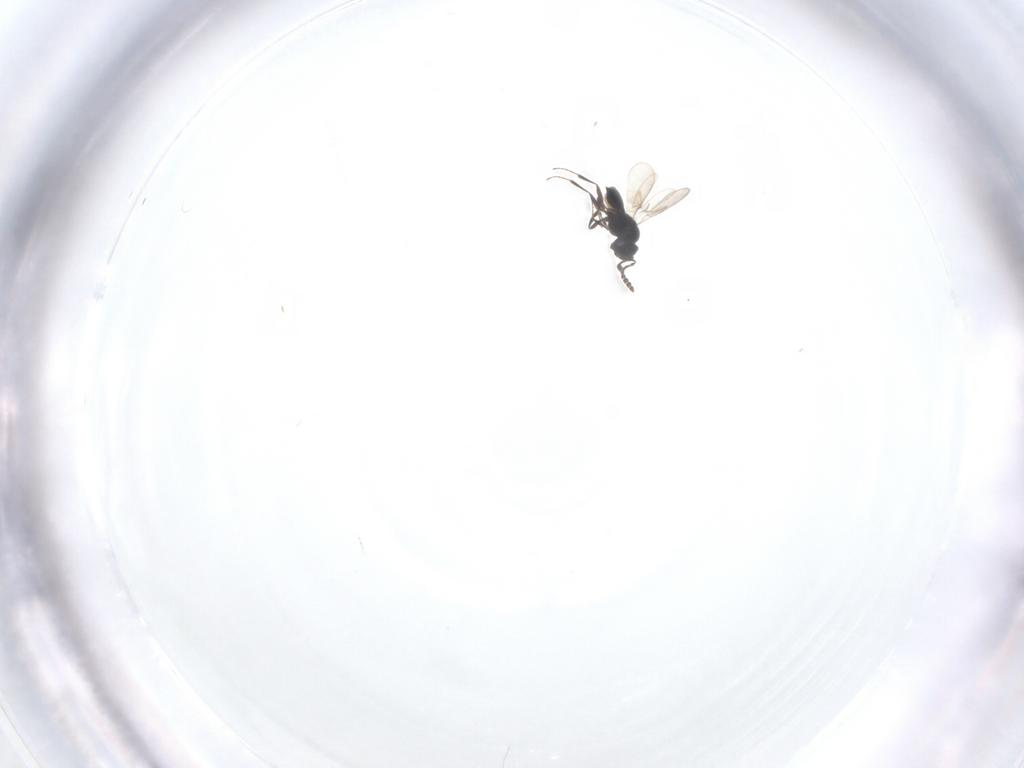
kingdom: Animalia
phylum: Arthropoda
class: Insecta
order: Hymenoptera
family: Scelionidae
